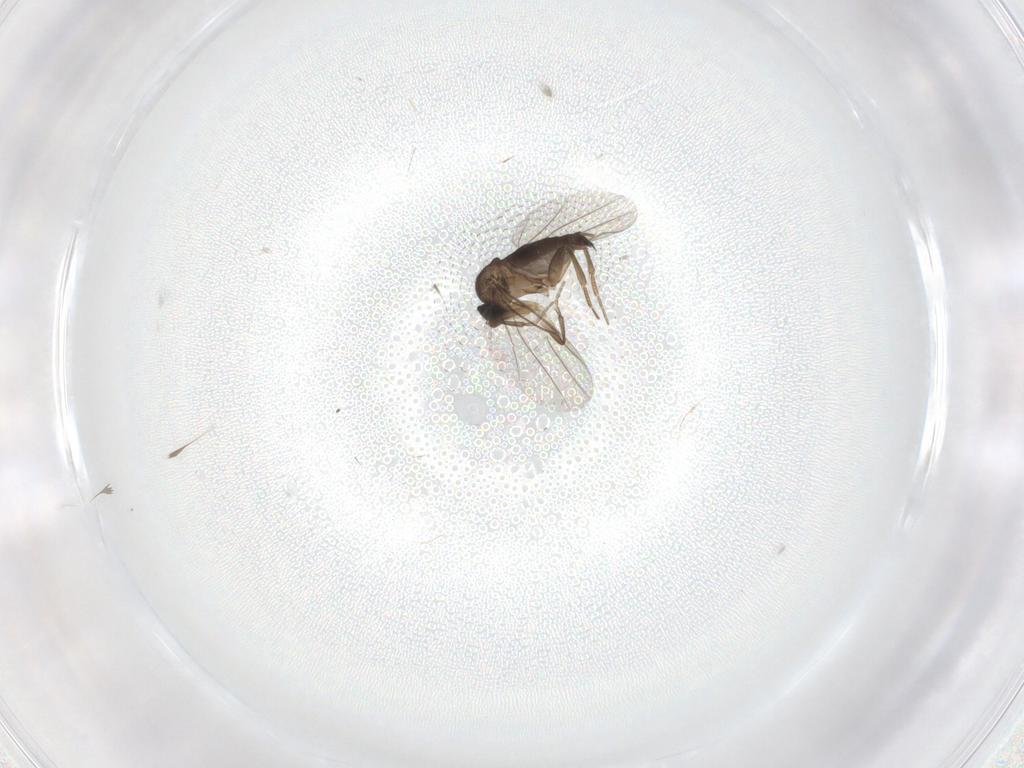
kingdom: Animalia
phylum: Arthropoda
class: Insecta
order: Diptera
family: Phoridae
